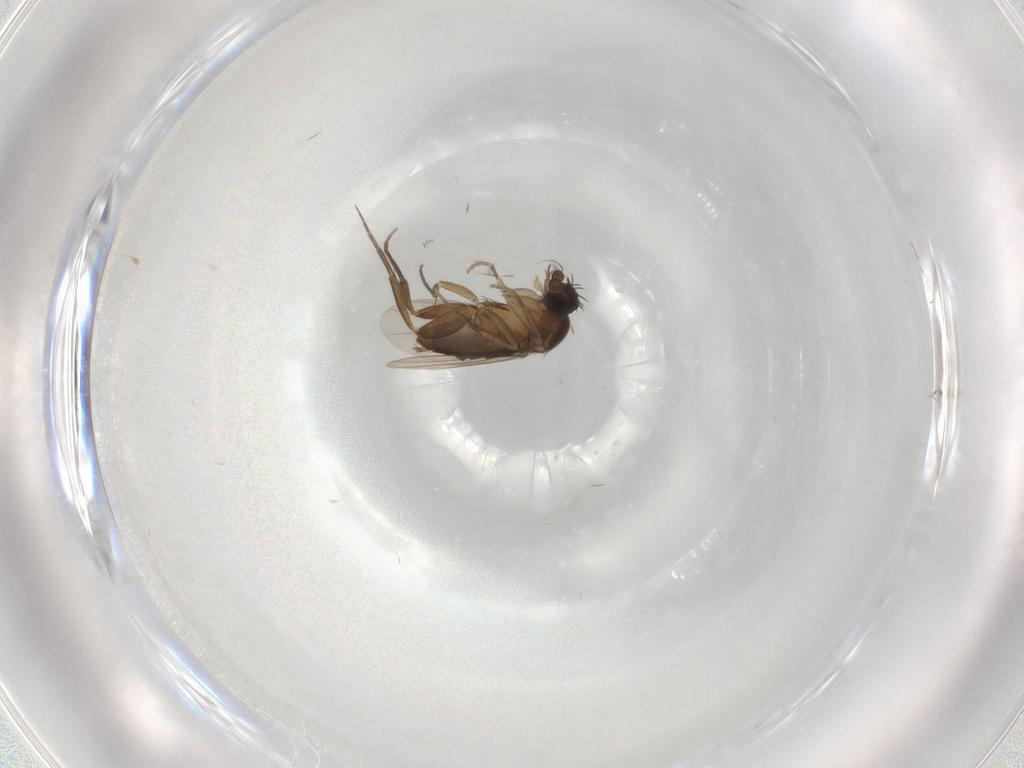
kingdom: Animalia
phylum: Arthropoda
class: Insecta
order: Diptera
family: Phoridae
